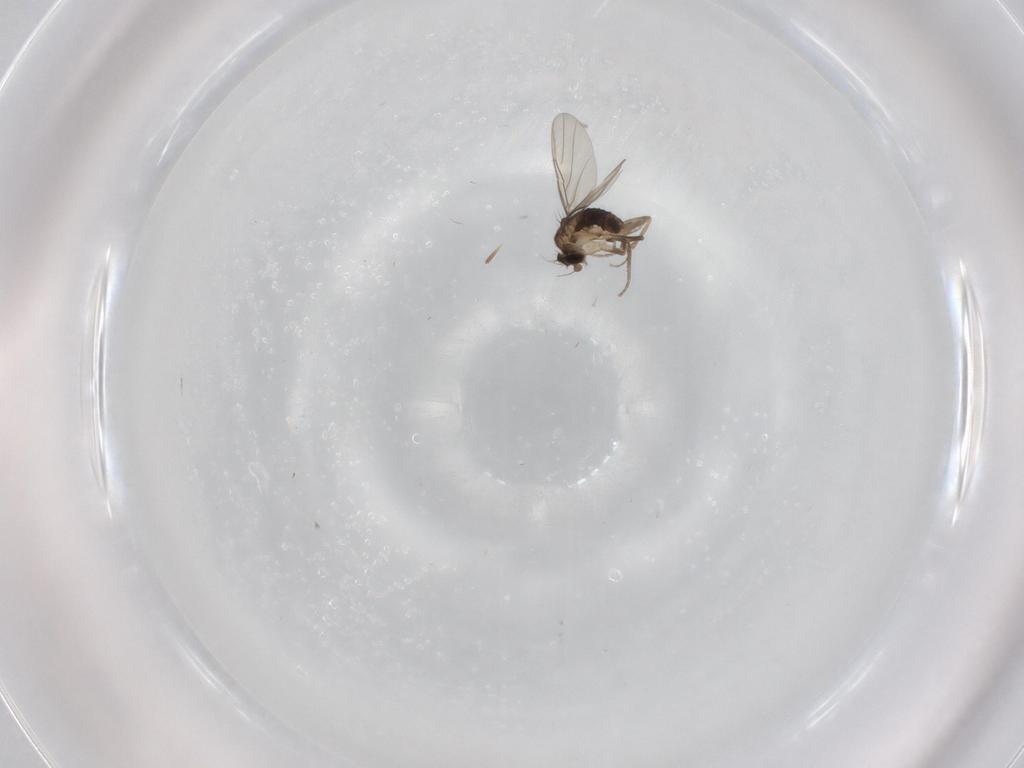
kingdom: Animalia
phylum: Arthropoda
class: Insecta
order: Diptera
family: Phoridae
